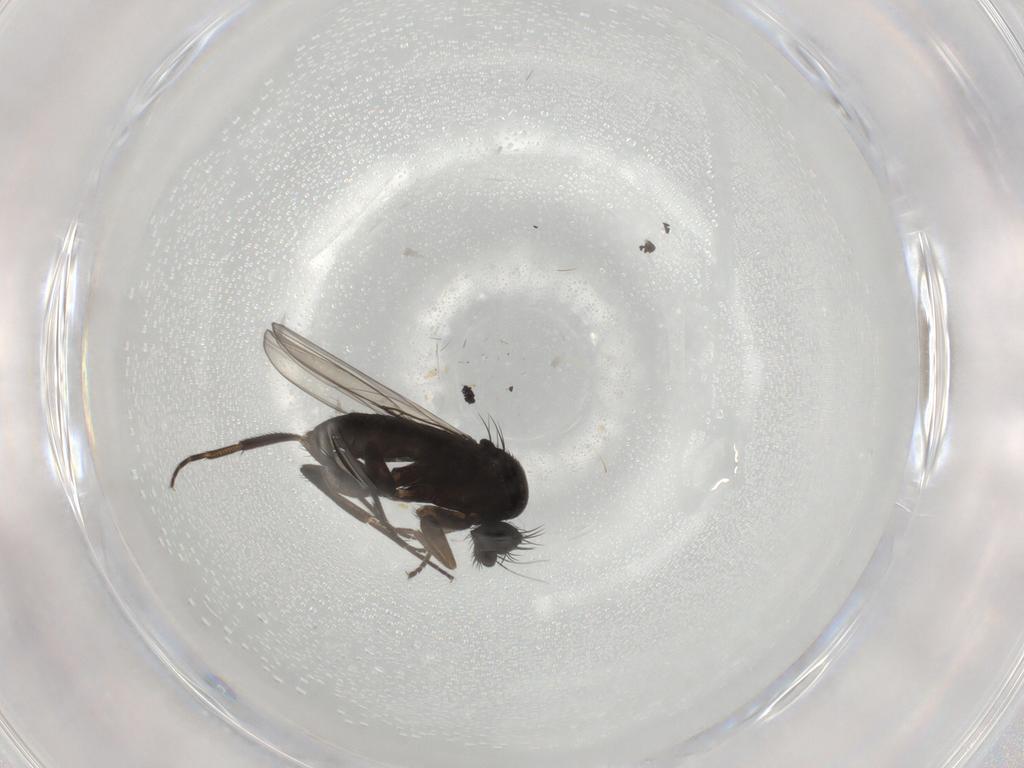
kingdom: Animalia
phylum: Arthropoda
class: Insecta
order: Diptera
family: Phoridae
